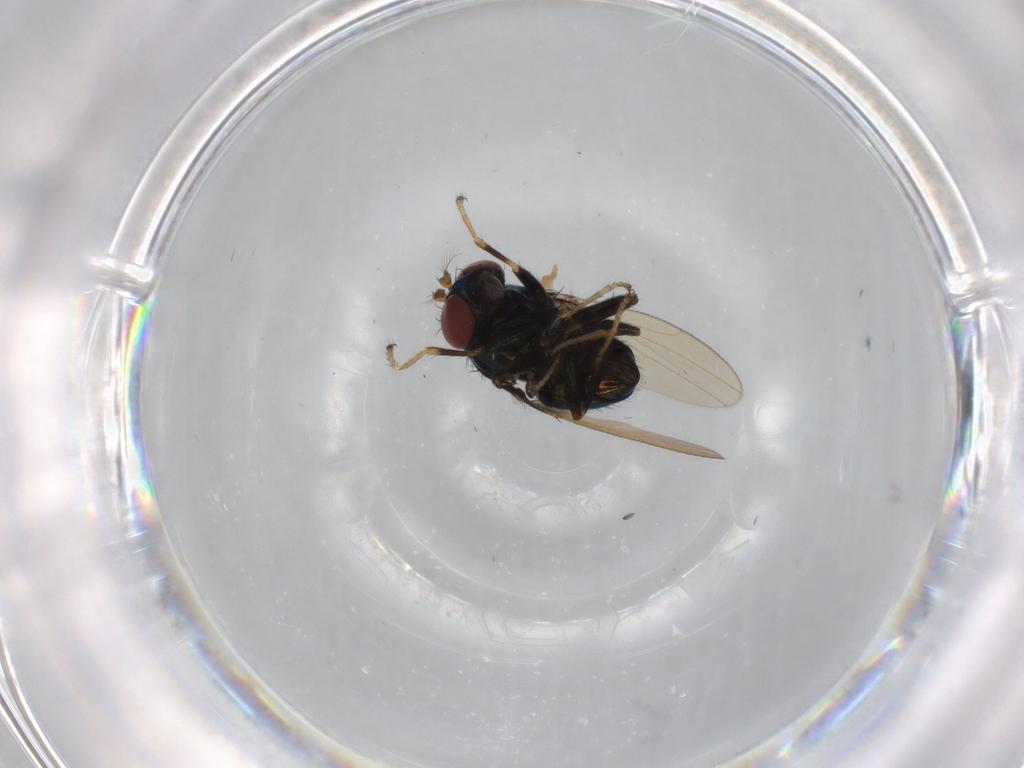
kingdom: Animalia
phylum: Arthropoda
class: Insecta
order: Diptera
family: Ephydridae
